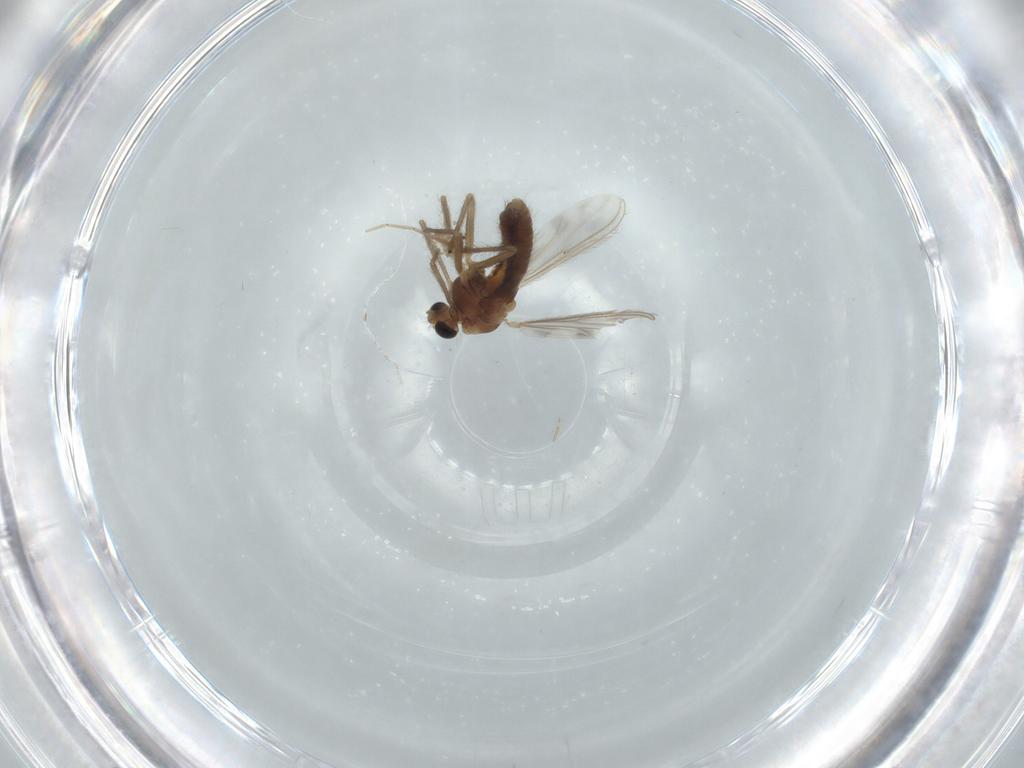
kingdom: Animalia
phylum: Arthropoda
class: Insecta
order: Diptera
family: Chironomidae
